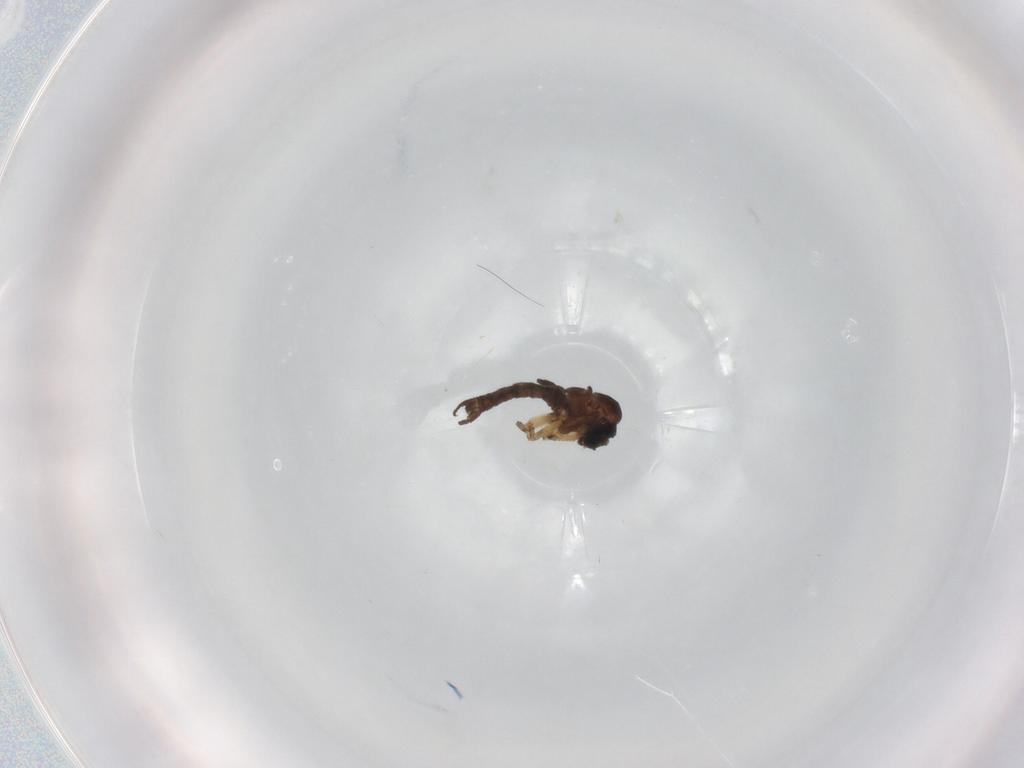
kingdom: Animalia
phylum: Arthropoda
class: Insecta
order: Diptera
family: Sciaridae
